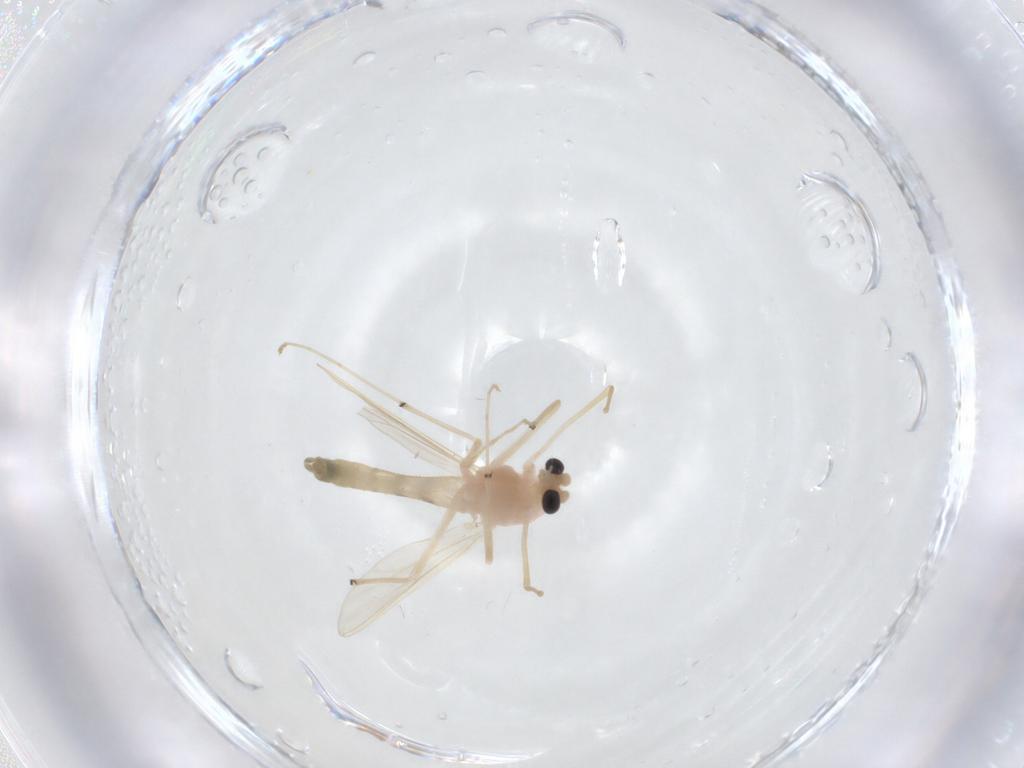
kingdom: Animalia
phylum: Arthropoda
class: Insecta
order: Diptera
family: Chironomidae
